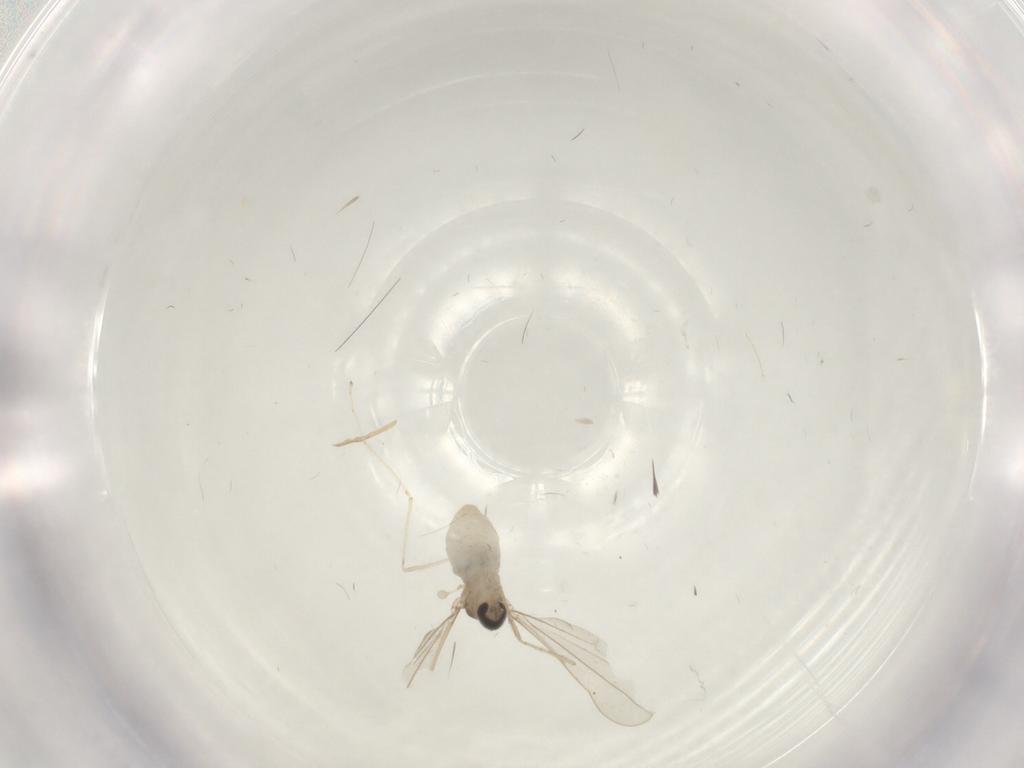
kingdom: Animalia
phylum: Arthropoda
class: Insecta
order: Diptera
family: Cecidomyiidae
